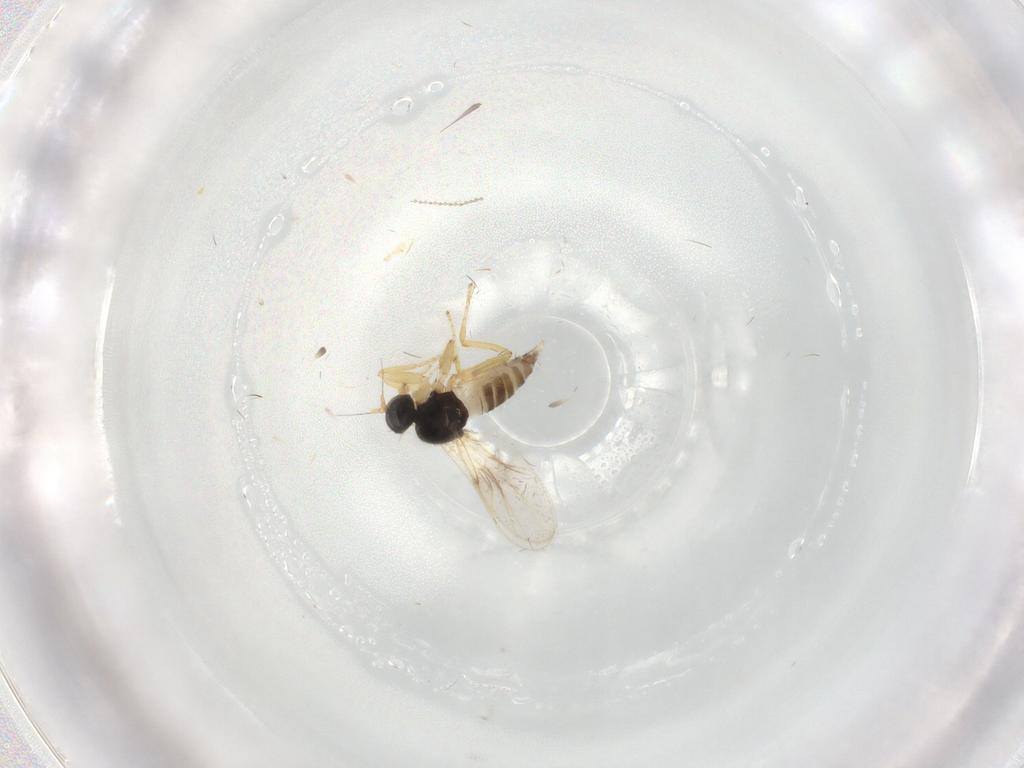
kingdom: Animalia
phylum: Arthropoda
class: Insecta
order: Diptera
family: Hybotidae
